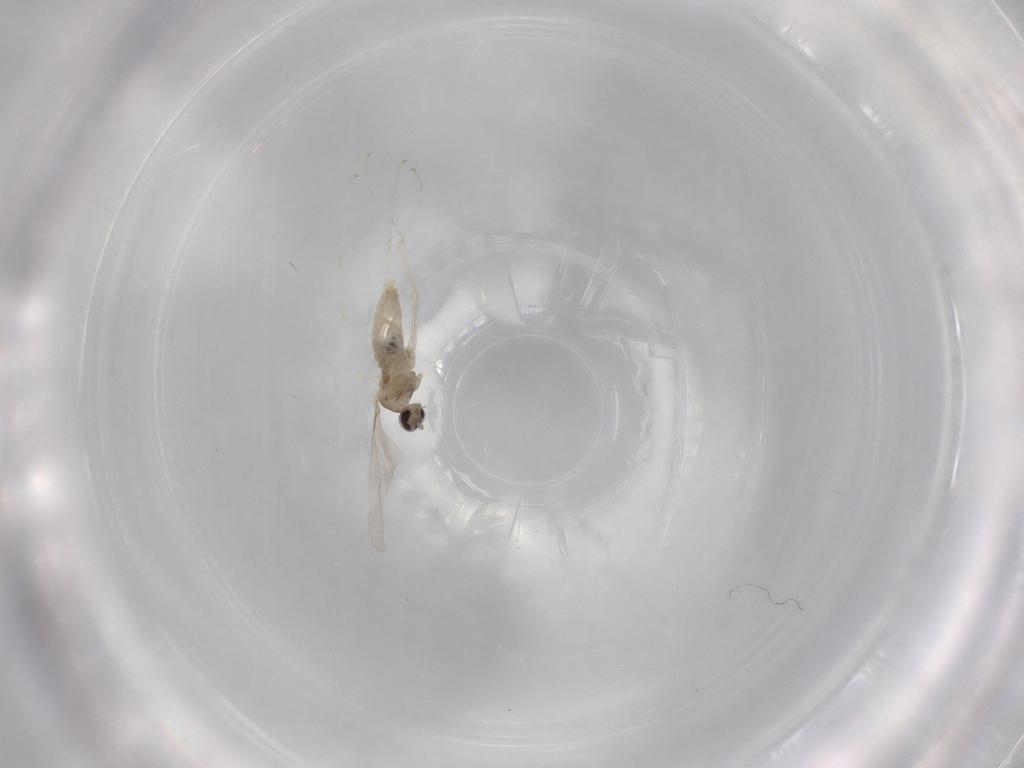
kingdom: Animalia
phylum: Arthropoda
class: Insecta
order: Diptera
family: Cecidomyiidae
